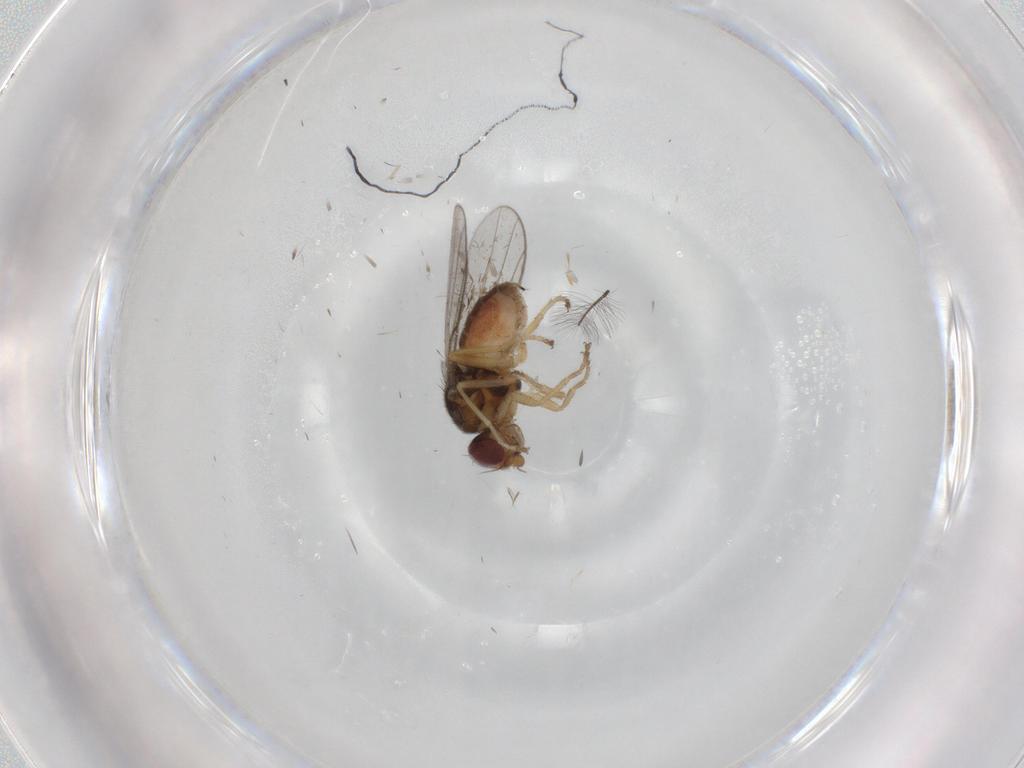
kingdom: Animalia
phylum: Arthropoda
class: Insecta
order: Diptera
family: Chloropidae
